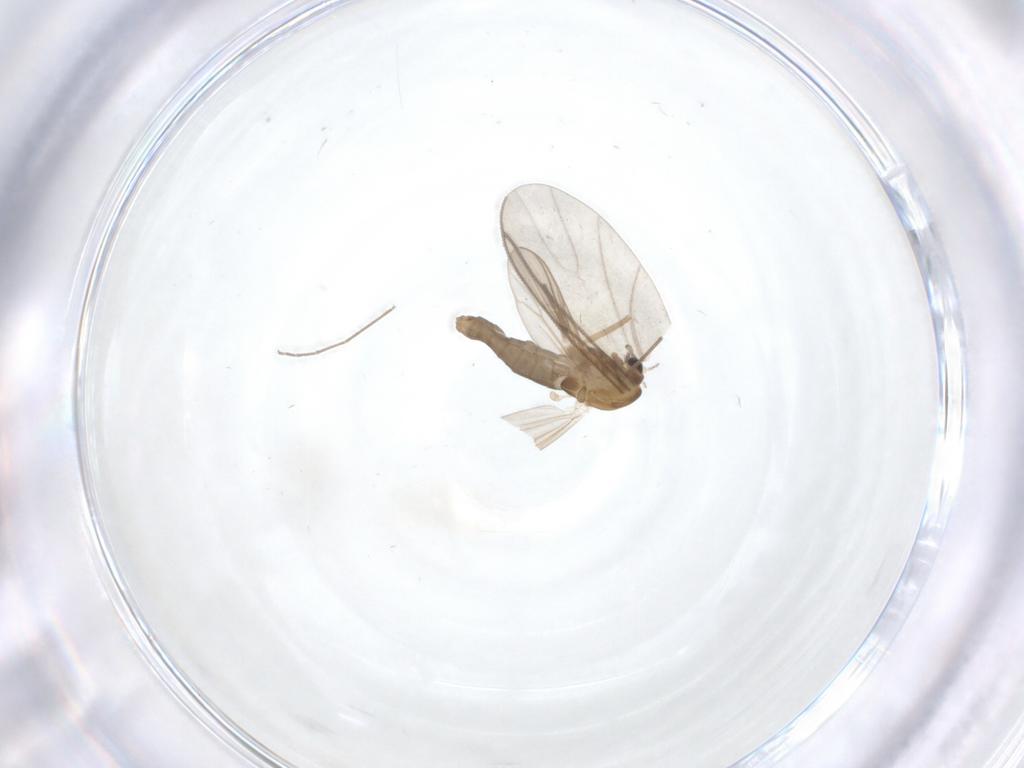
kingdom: Animalia
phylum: Arthropoda
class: Insecta
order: Diptera
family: Chironomidae
